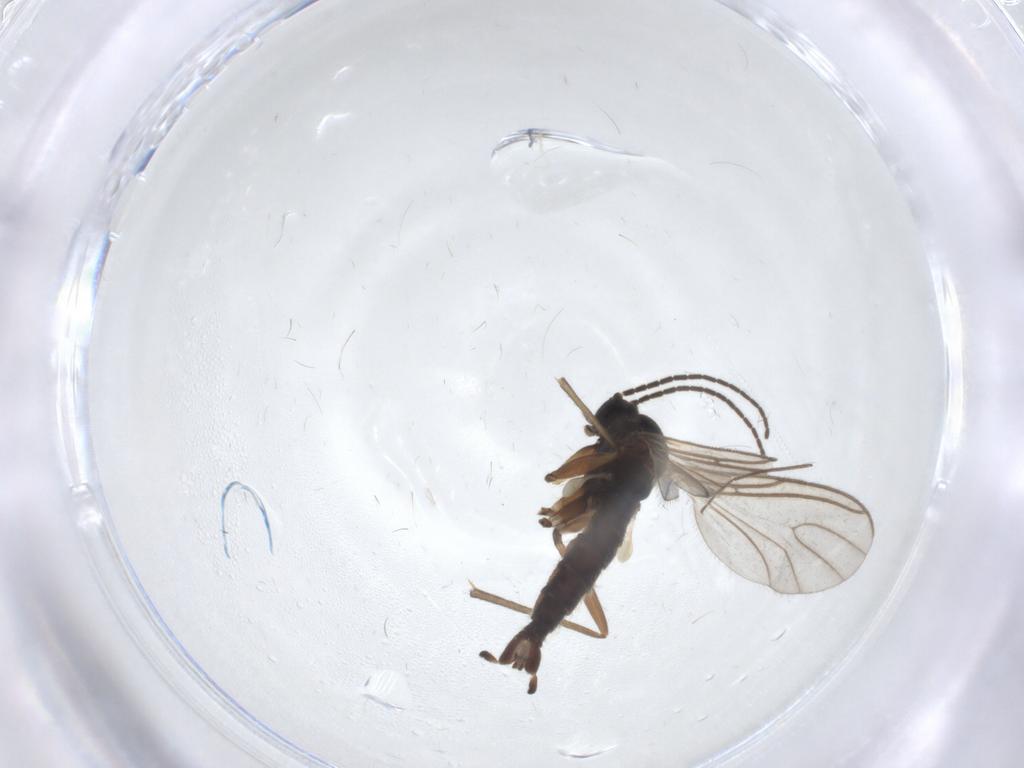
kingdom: Animalia
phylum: Arthropoda
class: Insecta
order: Diptera
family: Sciaridae
